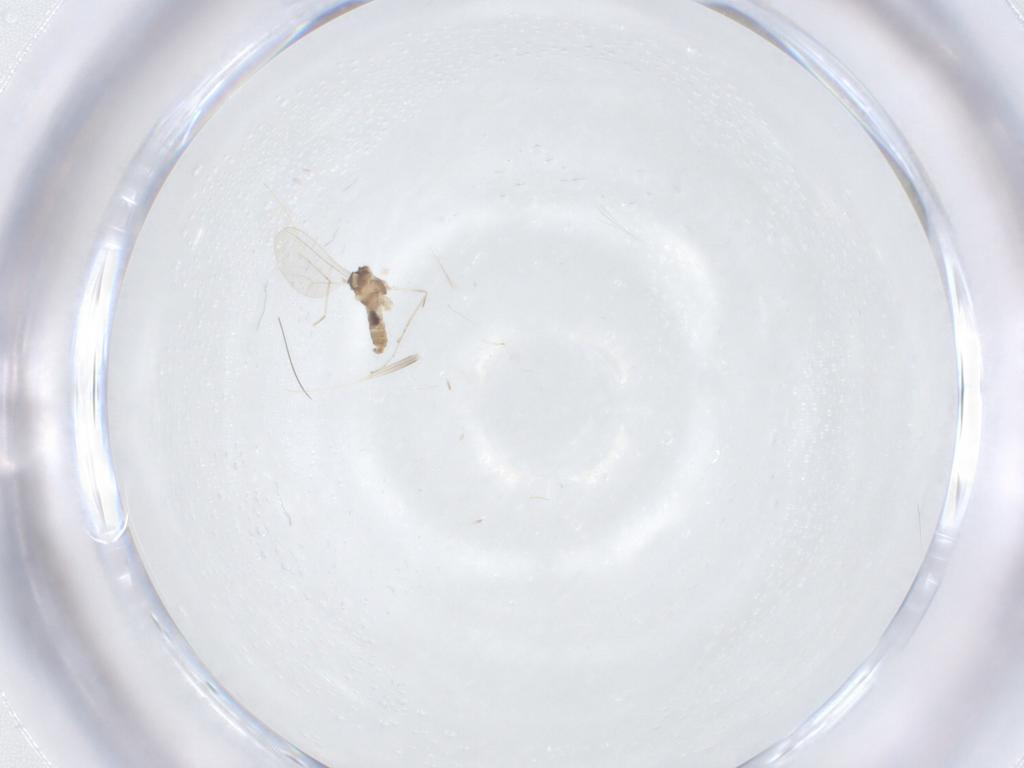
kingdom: Animalia
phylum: Arthropoda
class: Insecta
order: Diptera
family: Cecidomyiidae
